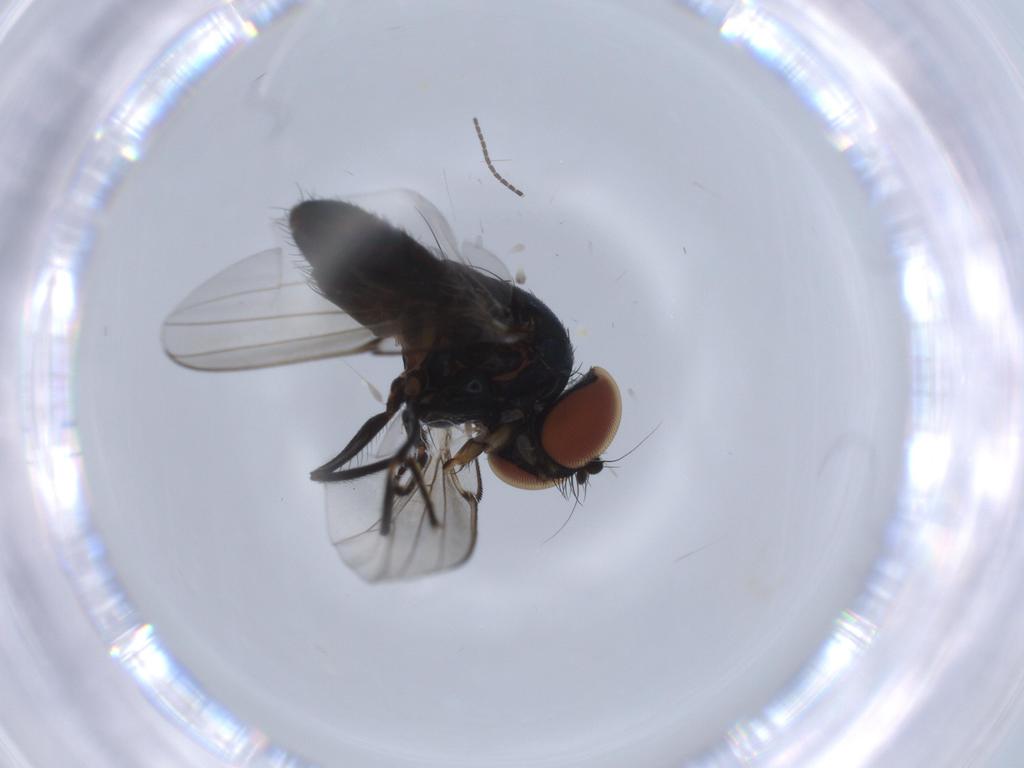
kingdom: Animalia
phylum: Arthropoda
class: Insecta
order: Diptera
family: Milichiidae
